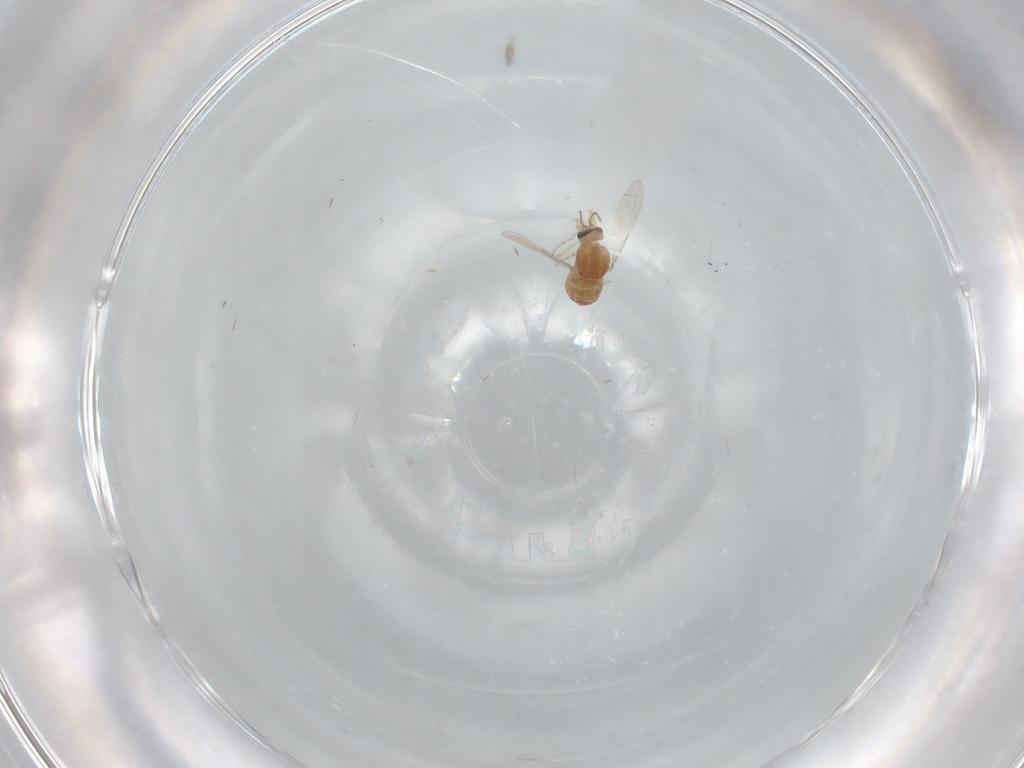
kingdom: Animalia
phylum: Arthropoda
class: Insecta
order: Diptera
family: Ceratopogonidae
